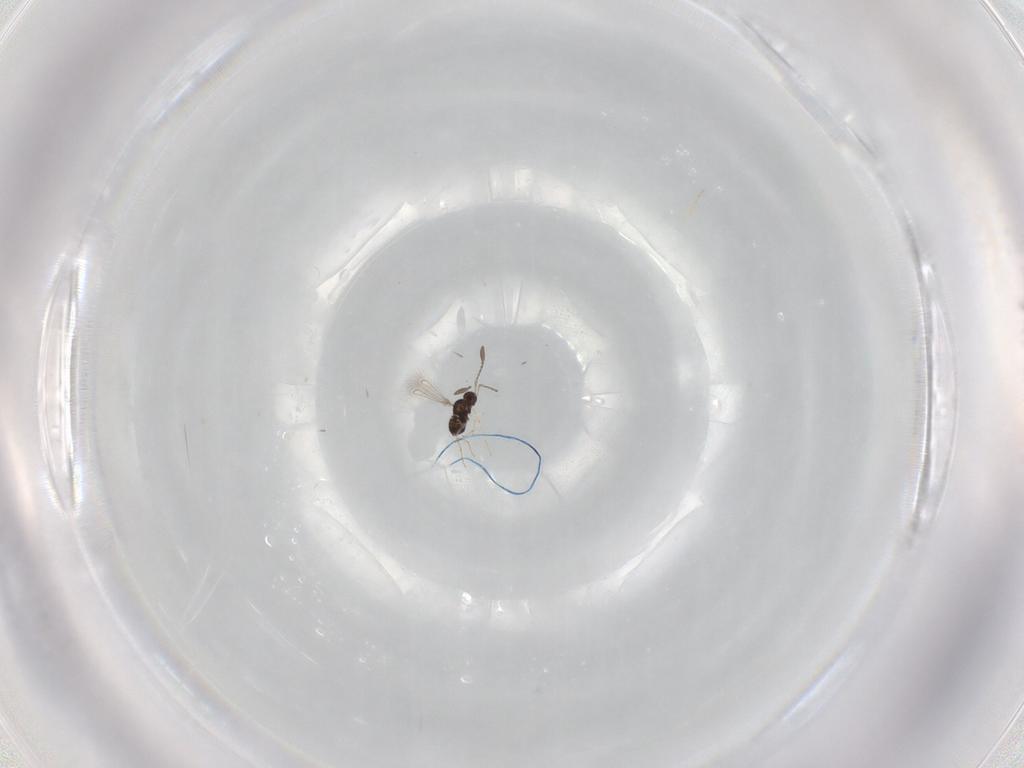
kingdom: Animalia
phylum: Arthropoda
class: Insecta
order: Hymenoptera
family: Diapriidae
